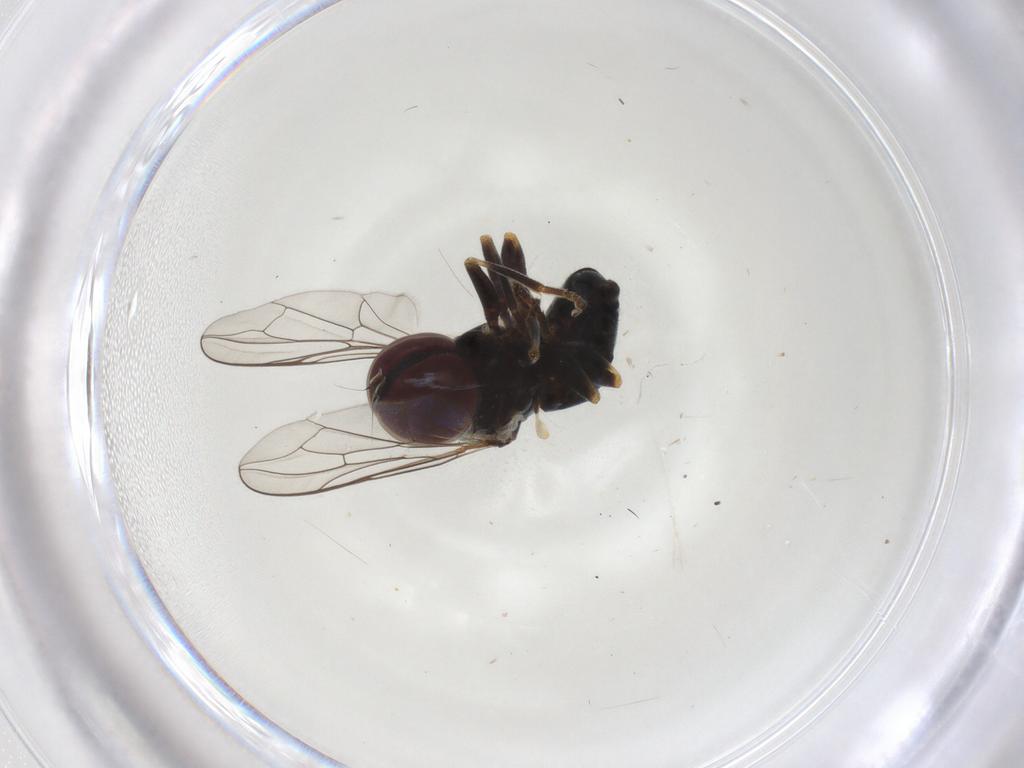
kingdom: Animalia
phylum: Arthropoda
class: Insecta
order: Diptera
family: Pipunculidae
